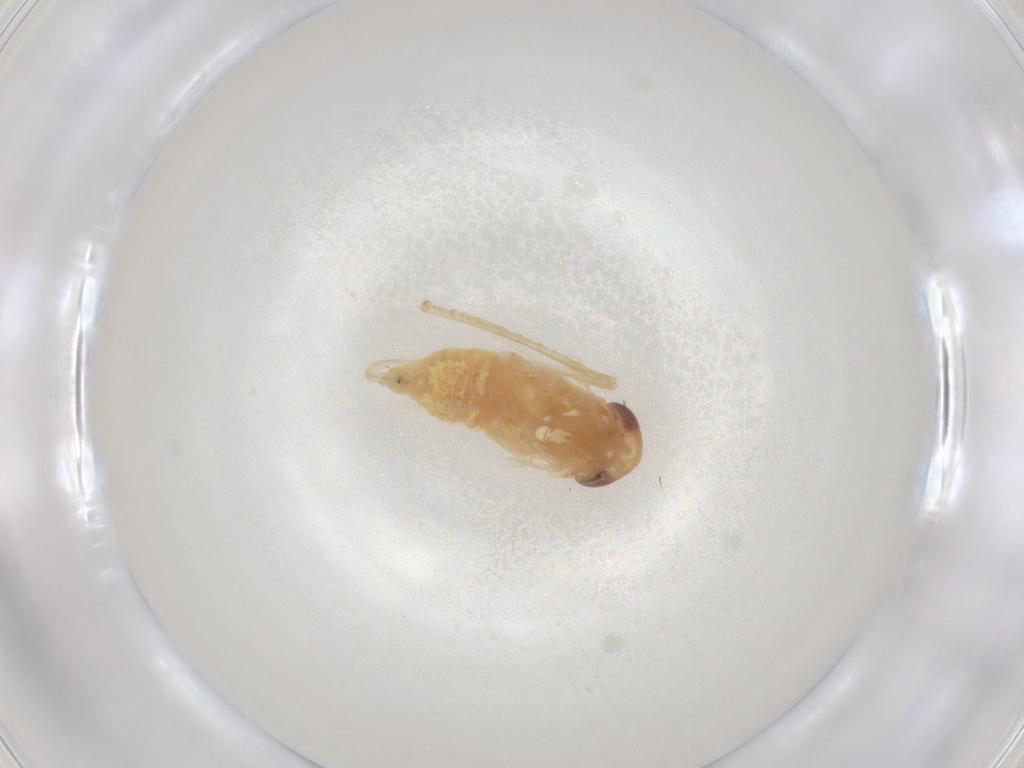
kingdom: Animalia
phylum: Arthropoda
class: Insecta
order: Hemiptera
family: Cicadellidae
